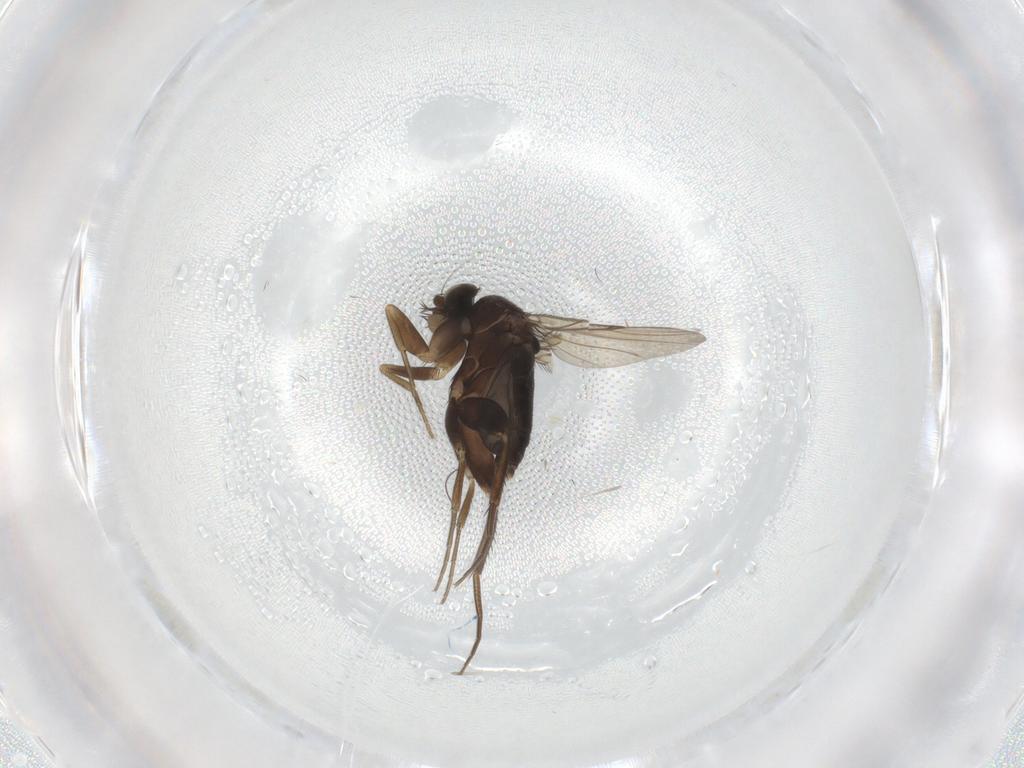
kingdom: Animalia
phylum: Arthropoda
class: Insecta
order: Diptera
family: Phoridae
